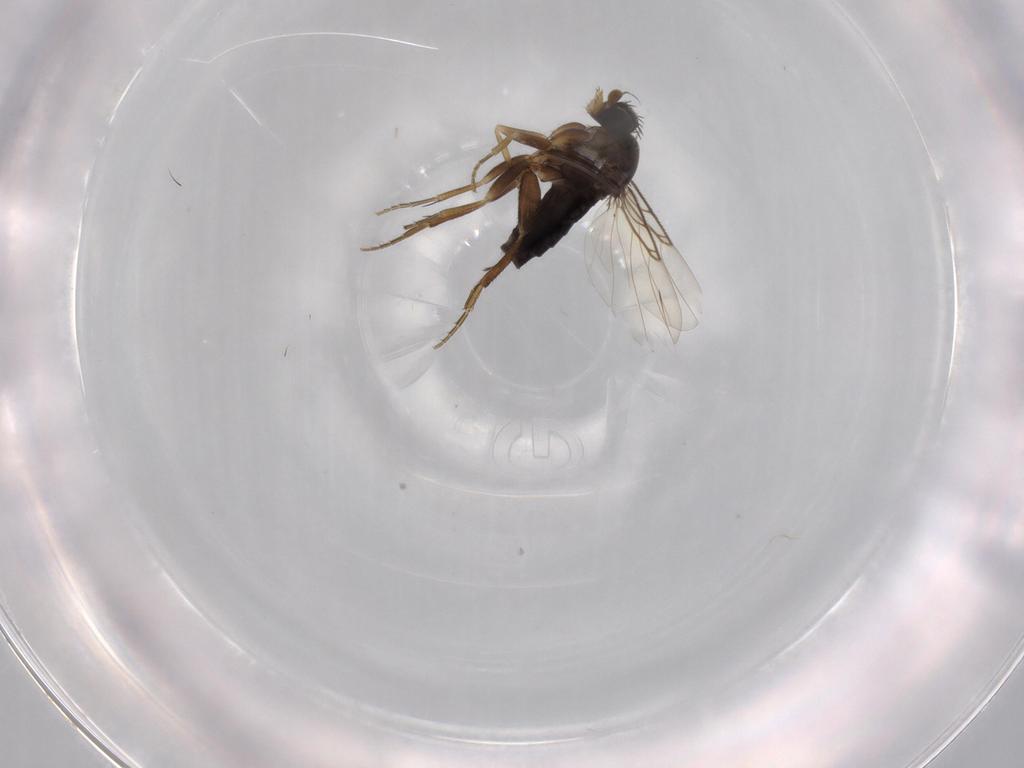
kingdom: Animalia
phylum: Arthropoda
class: Insecta
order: Diptera
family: Phoridae
